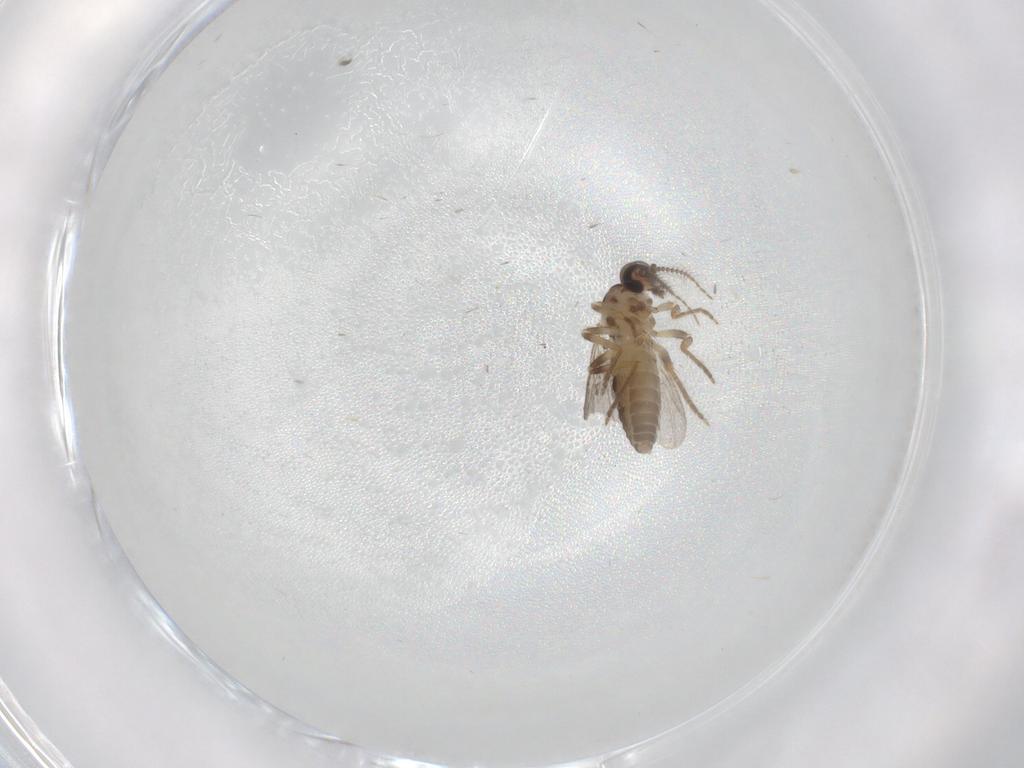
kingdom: Animalia
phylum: Arthropoda
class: Insecta
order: Diptera
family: Ceratopogonidae
